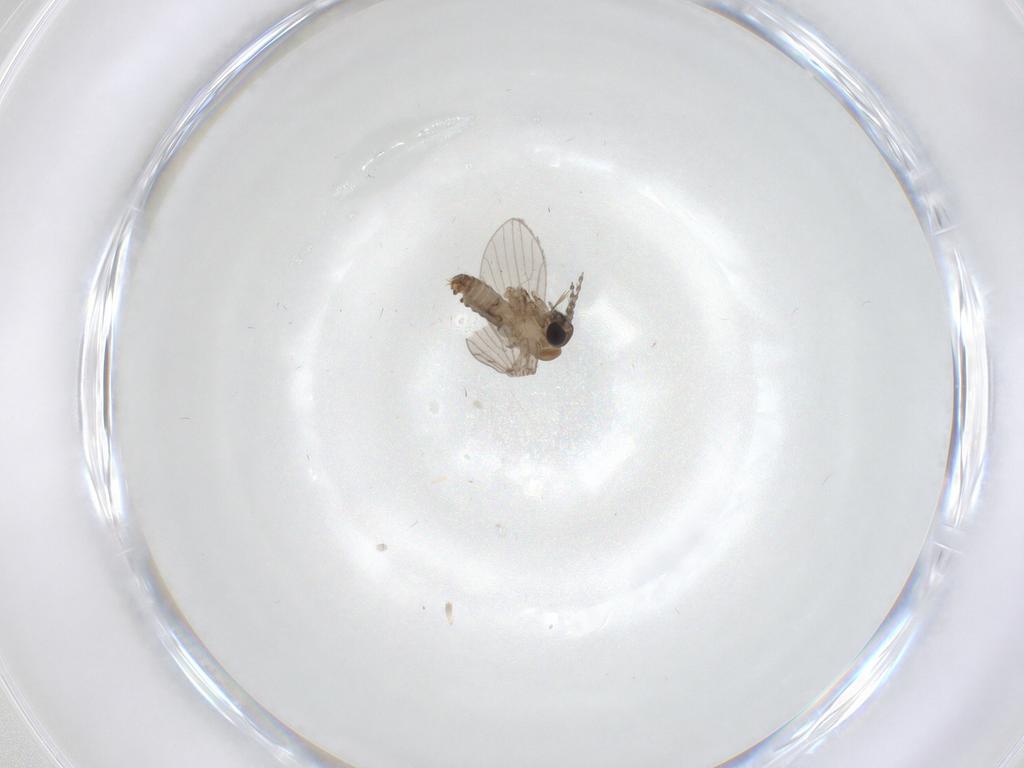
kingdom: Animalia
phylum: Arthropoda
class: Insecta
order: Diptera
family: Psychodidae
